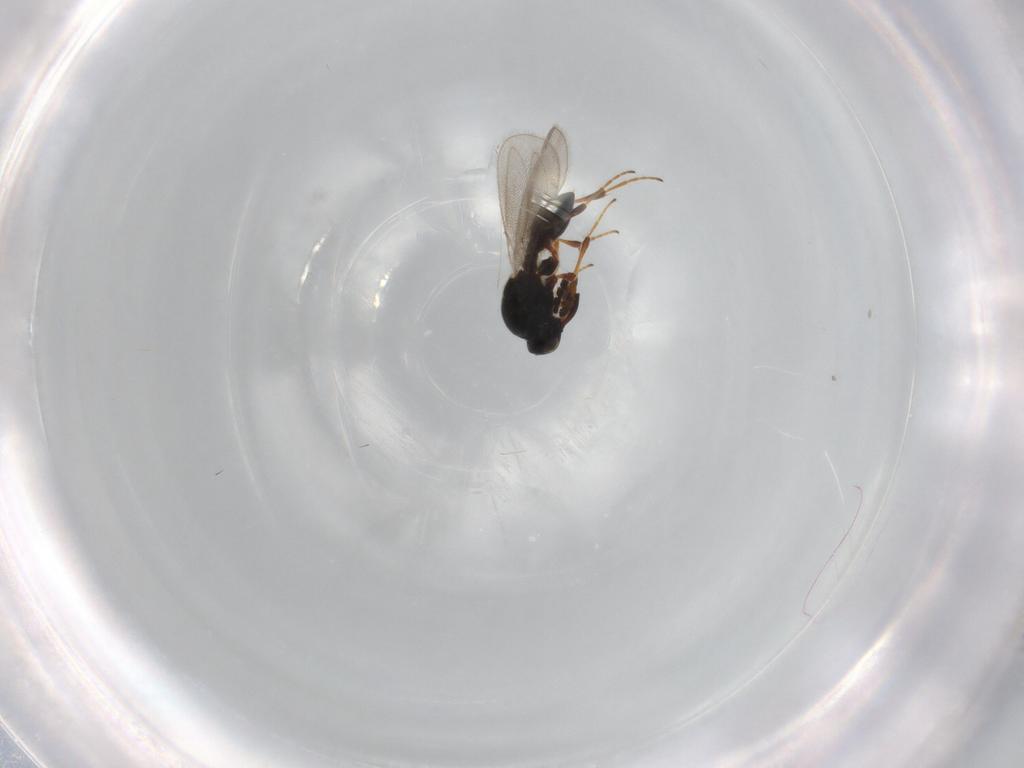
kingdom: Animalia
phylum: Arthropoda
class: Insecta
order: Hymenoptera
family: Platygastridae
